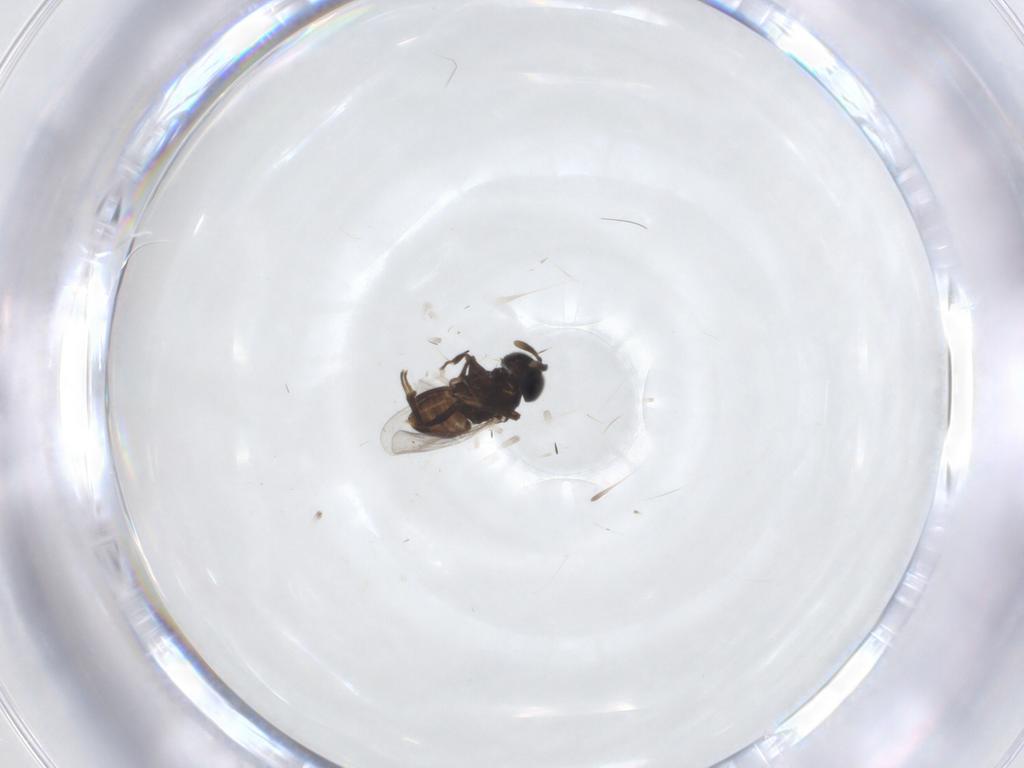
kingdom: Animalia
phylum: Arthropoda
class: Insecta
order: Hymenoptera
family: Encyrtidae
